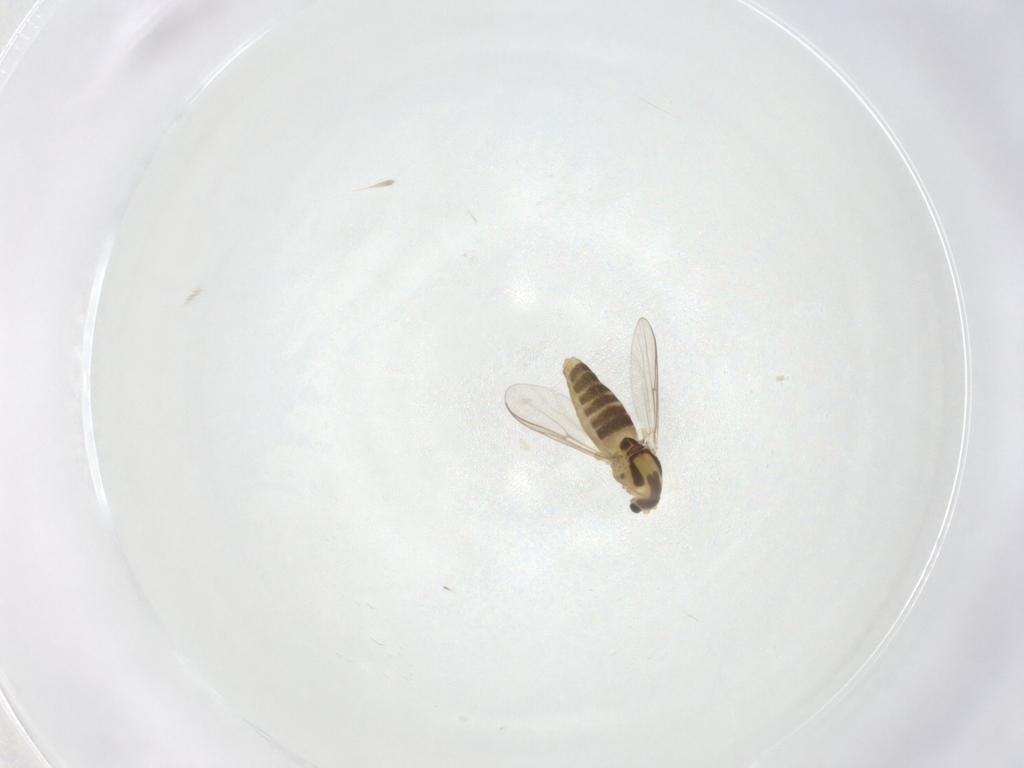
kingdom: Animalia
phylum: Arthropoda
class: Insecta
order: Diptera
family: Chironomidae
